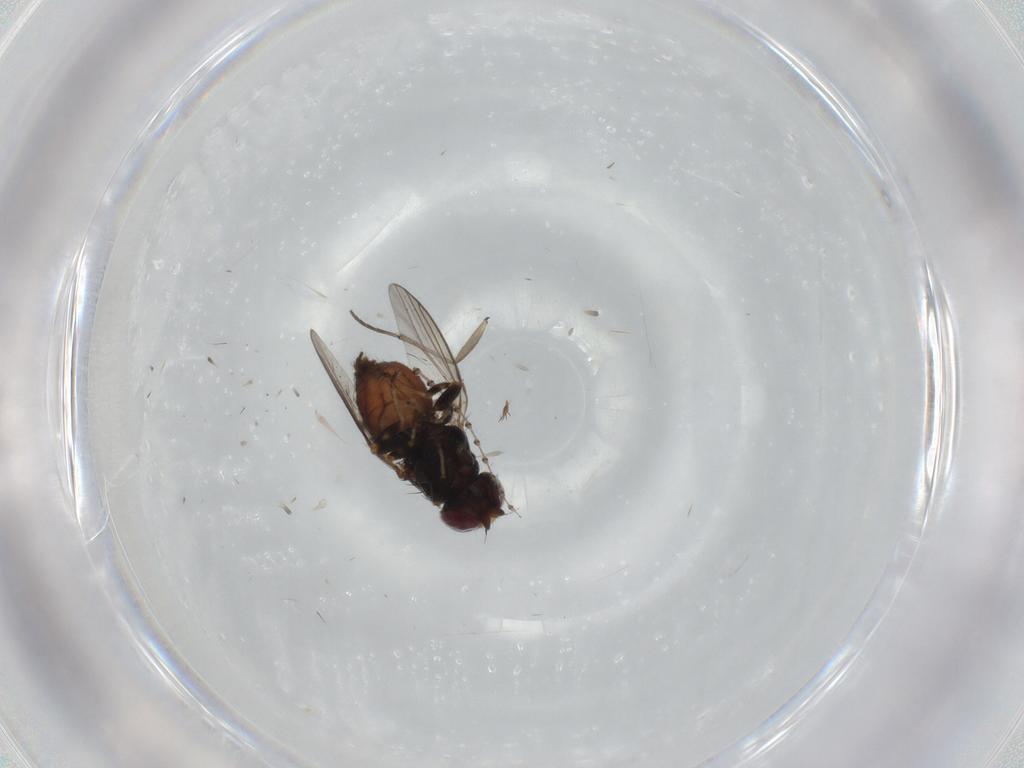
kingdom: Animalia
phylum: Arthropoda
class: Insecta
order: Diptera
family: Chloropidae
